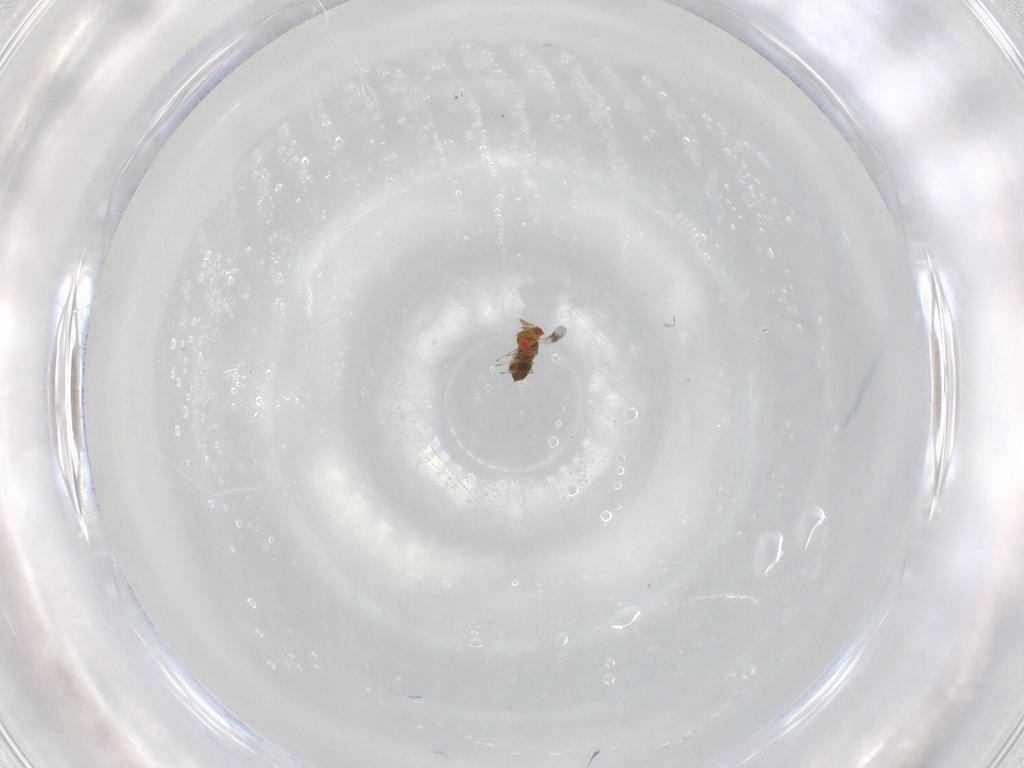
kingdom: Animalia
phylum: Arthropoda
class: Insecta
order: Hymenoptera
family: Trichogrammatidae
